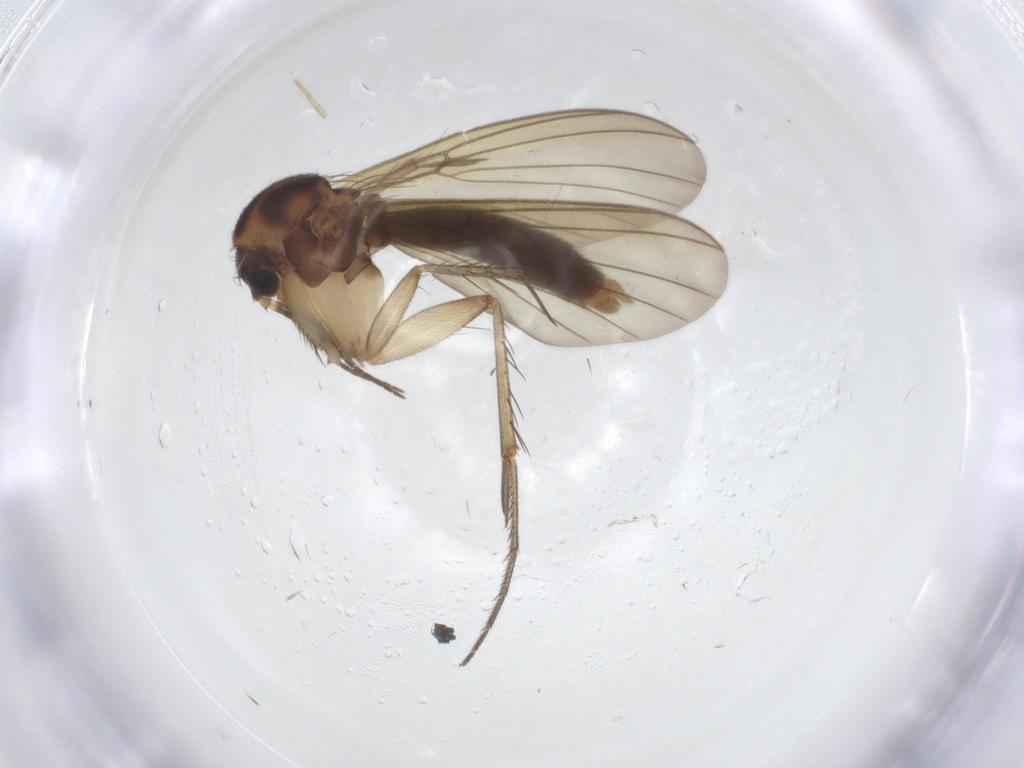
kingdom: Animalia
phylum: Arthropoda
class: Insecta
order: Diptera
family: Mycetophilidae
